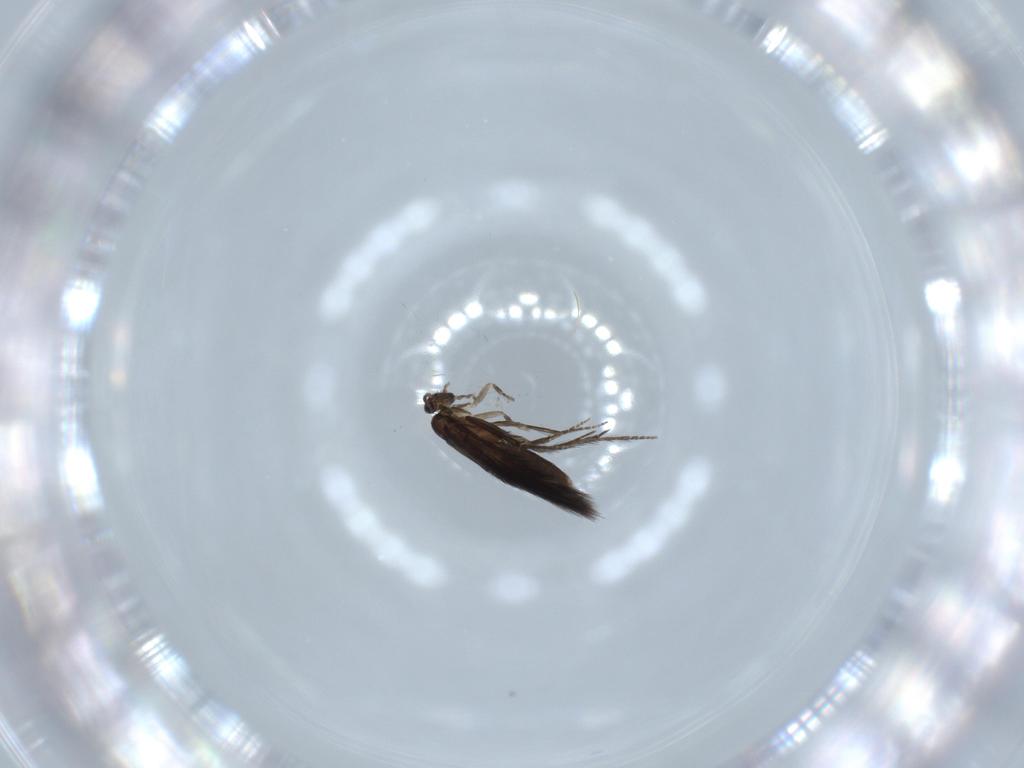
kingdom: Animalia
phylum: Arthropoda
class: Insecta
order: Trichoptera
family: Hydroptilidae
